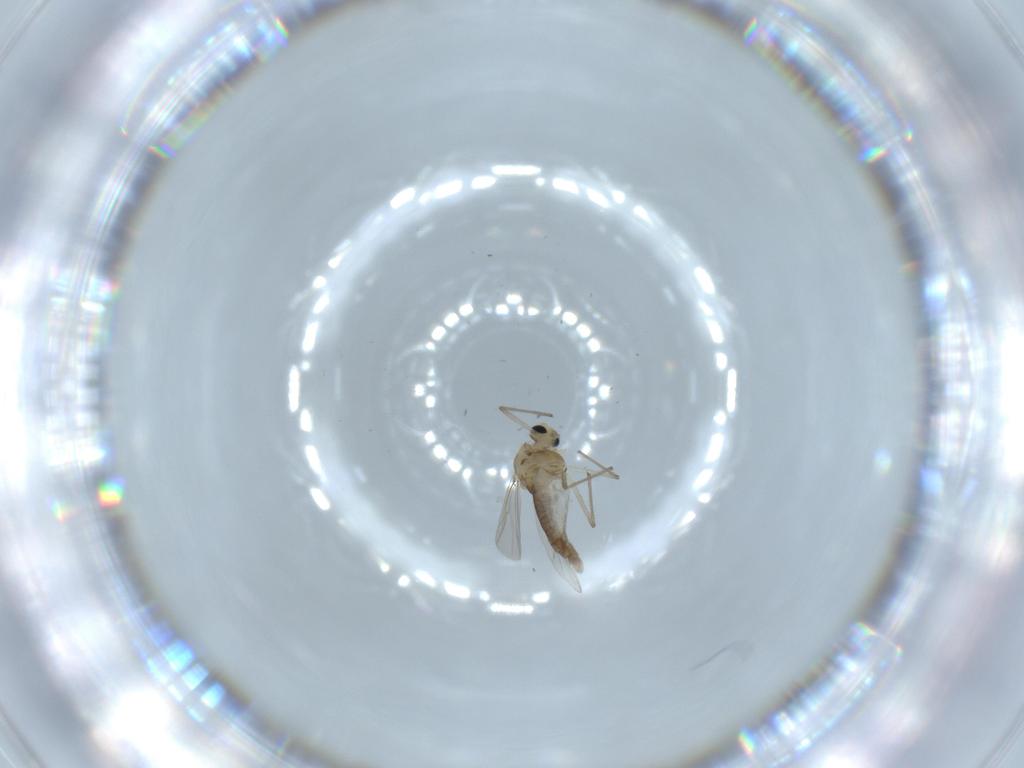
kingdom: Animalia
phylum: Arthropoda
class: Insecta
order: Diptera
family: Chironomidae
